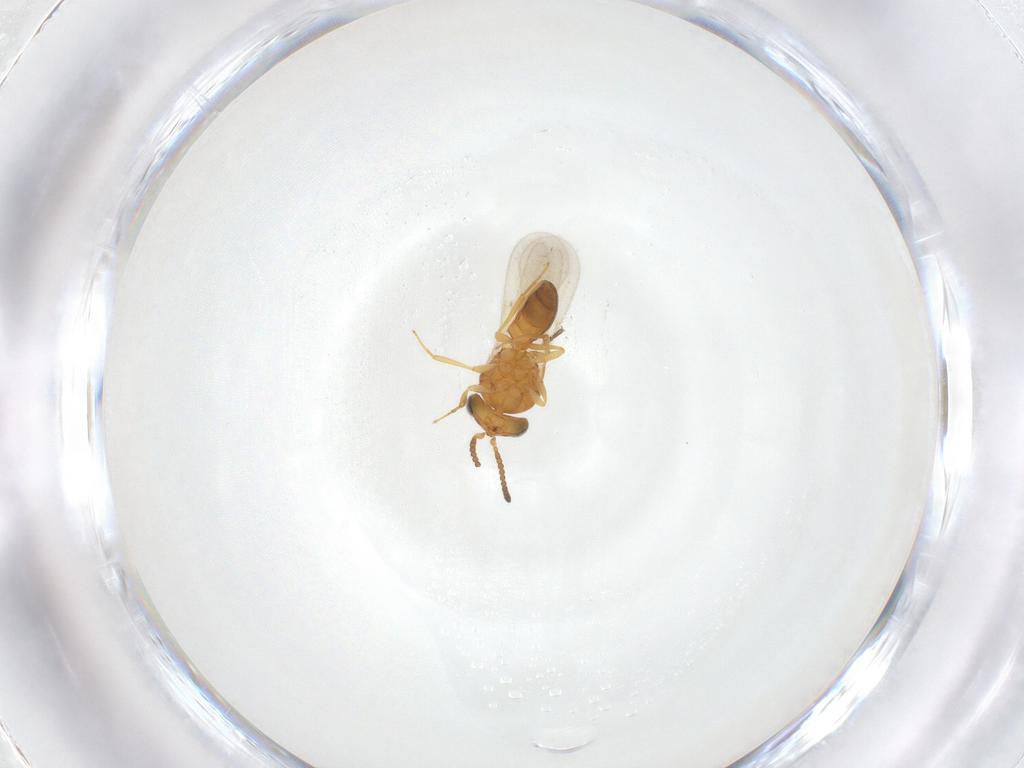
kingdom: Animalia
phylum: Arthropoda
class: Insecta
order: Hymenoptera
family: Scelionidae
